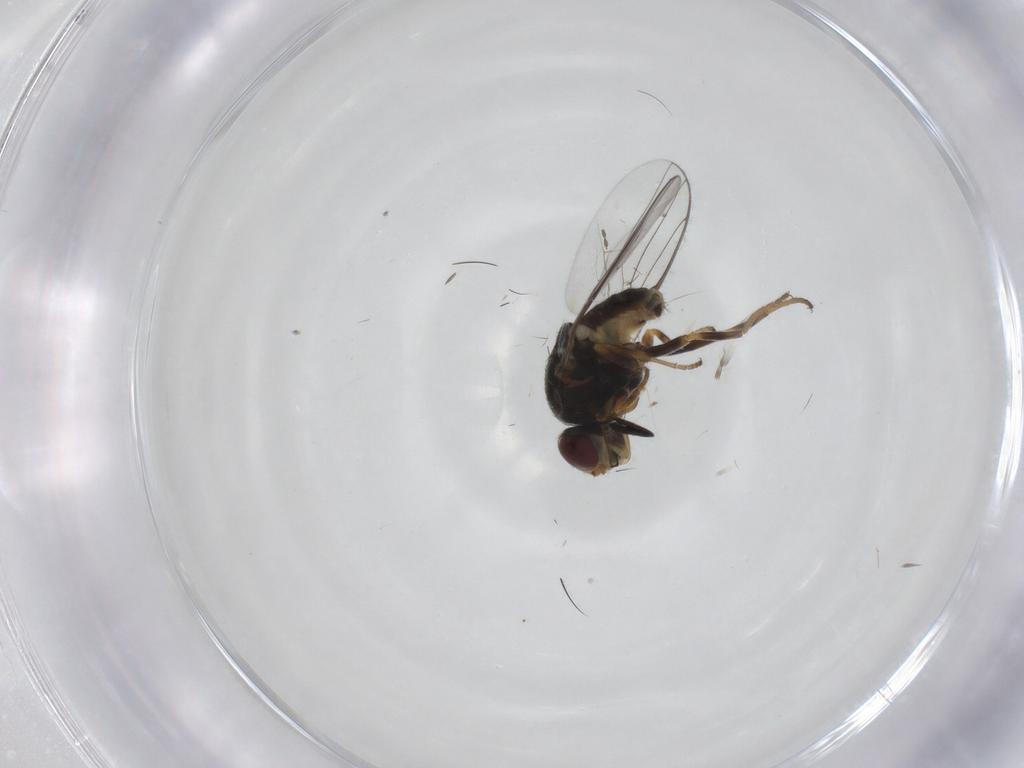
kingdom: Animalia
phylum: Arthropoda
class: Insecta
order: Diptera
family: Chloropidae
